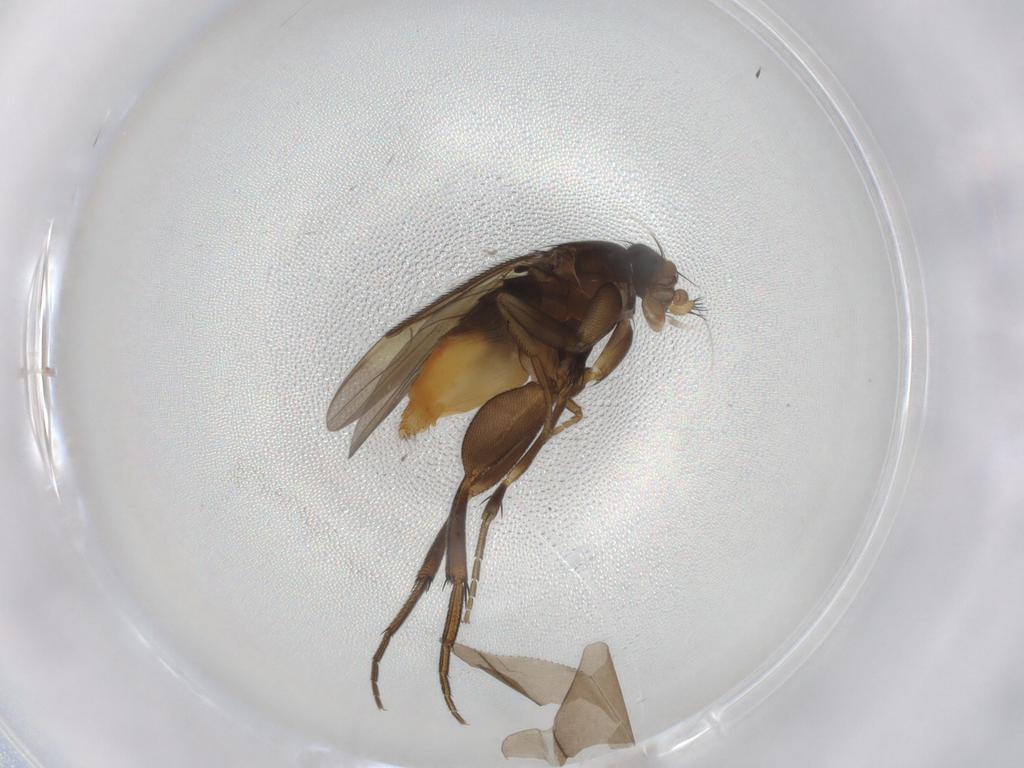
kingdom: Animalia
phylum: Arthropoda
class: Insecta
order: Diptera
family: Phoridae
